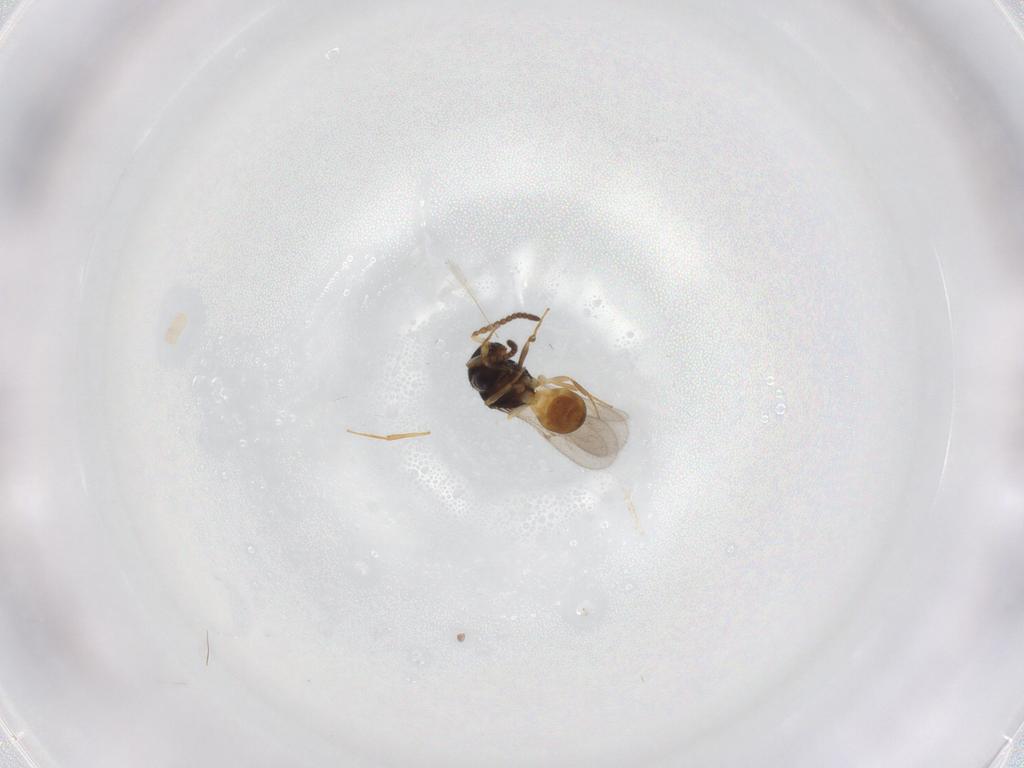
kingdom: Animalia
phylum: Arthropoda
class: Insecta
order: Hymenoptera
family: Scelionidae
